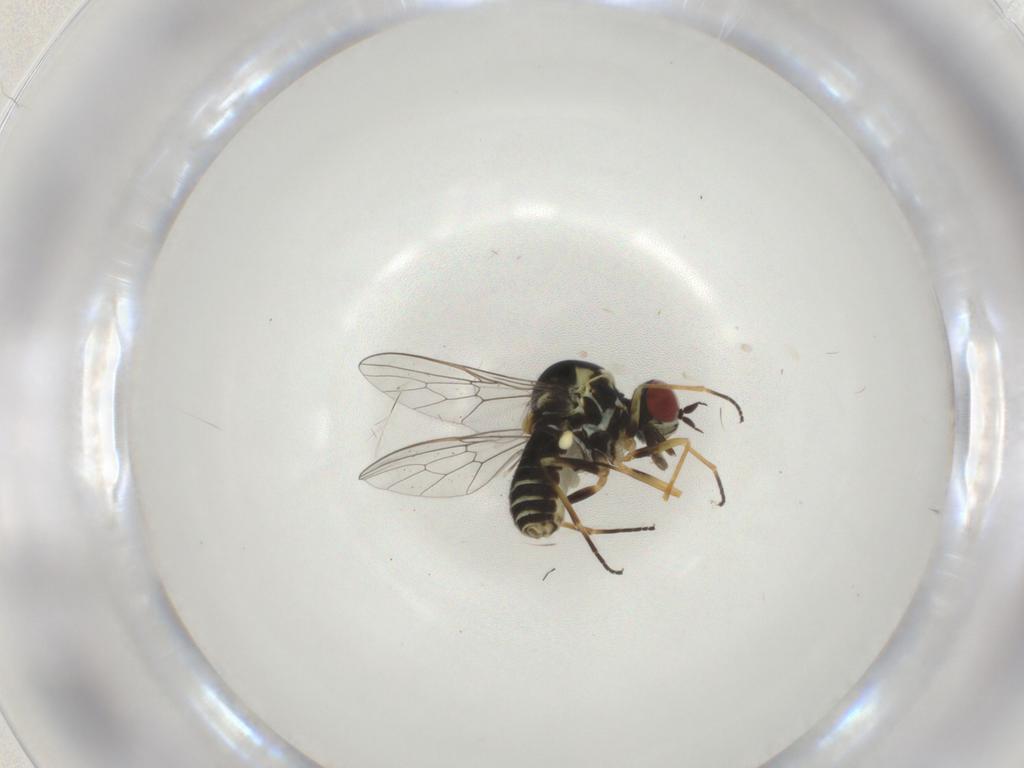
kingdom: Animalia
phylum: Arthropoda
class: Insecta
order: Diptera
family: Bombyliidae
